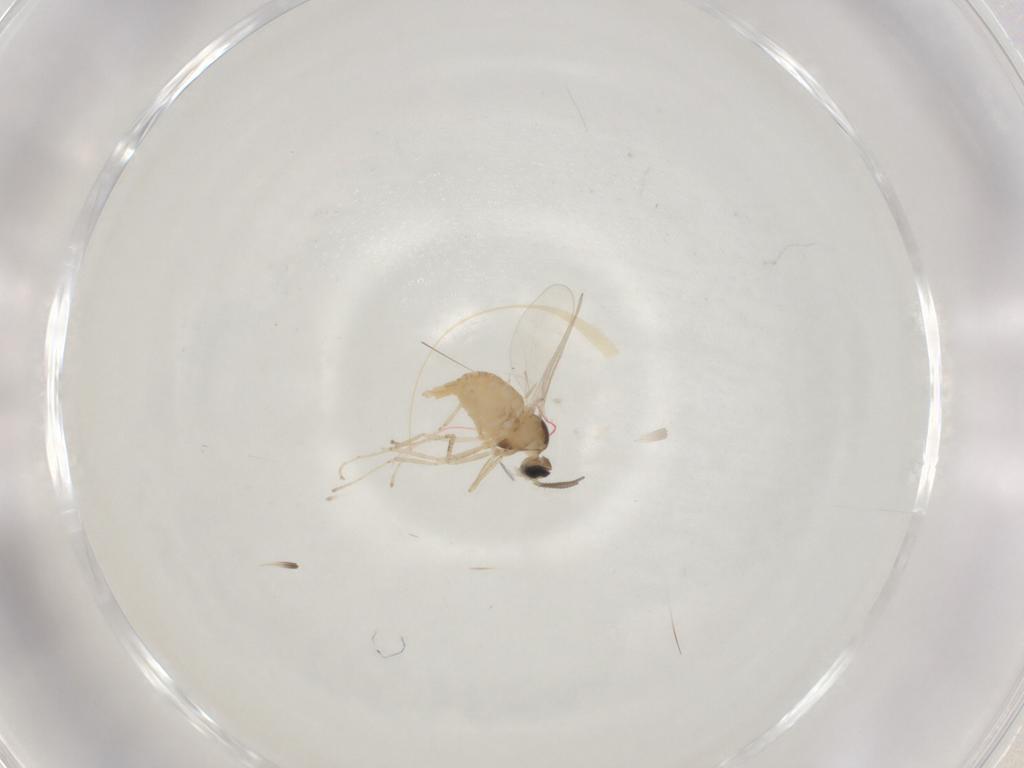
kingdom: Animalia
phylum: Arthropoda
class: Insecta
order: Diptera
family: Cecidomyiidae
